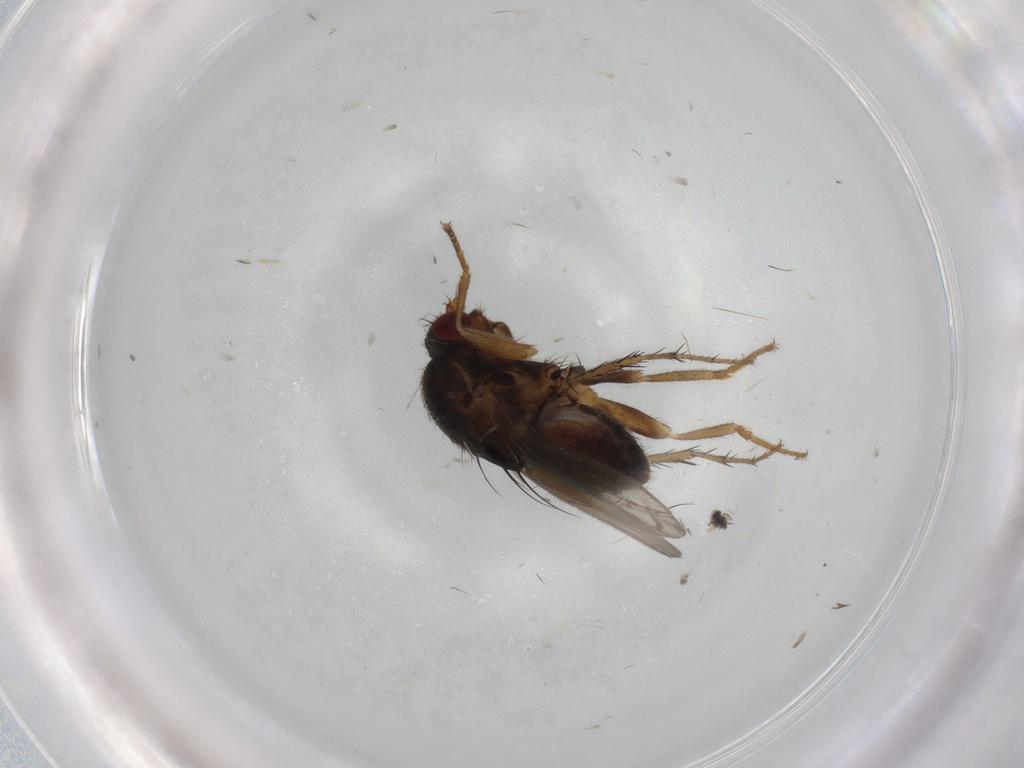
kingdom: Animalia
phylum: Arthropoda
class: Insecta
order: Diptera
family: Sphaeroceridae
